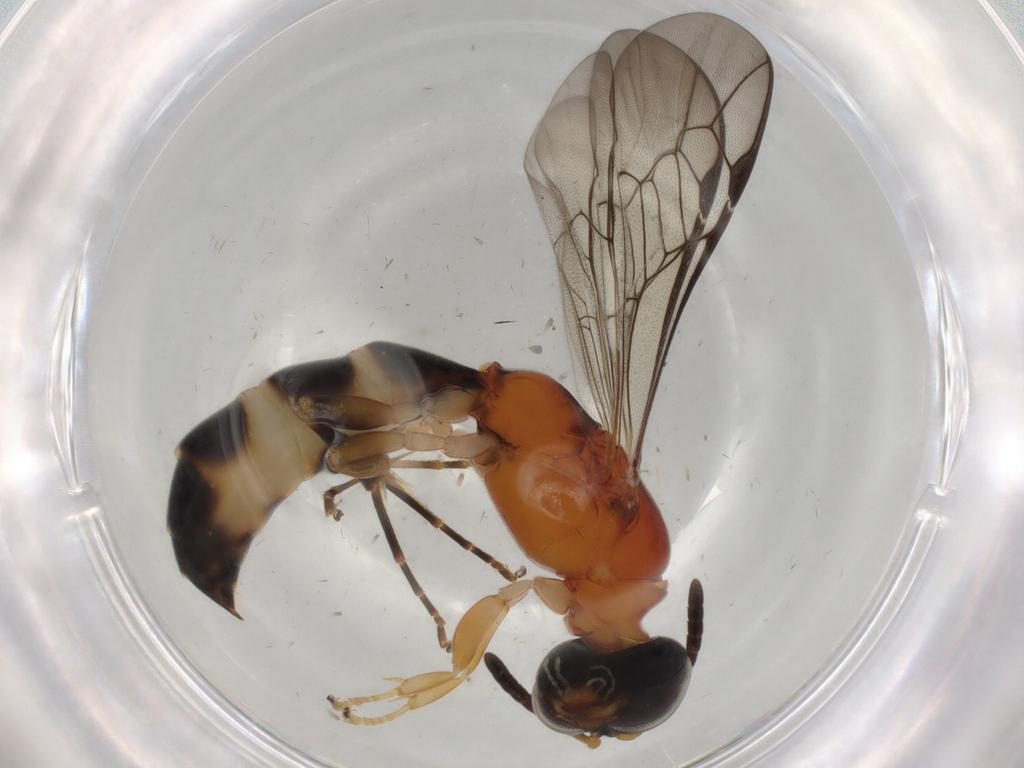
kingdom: Animalia
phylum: Arthropoda
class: Insecta
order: Hymenoptera
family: Crabronidae
